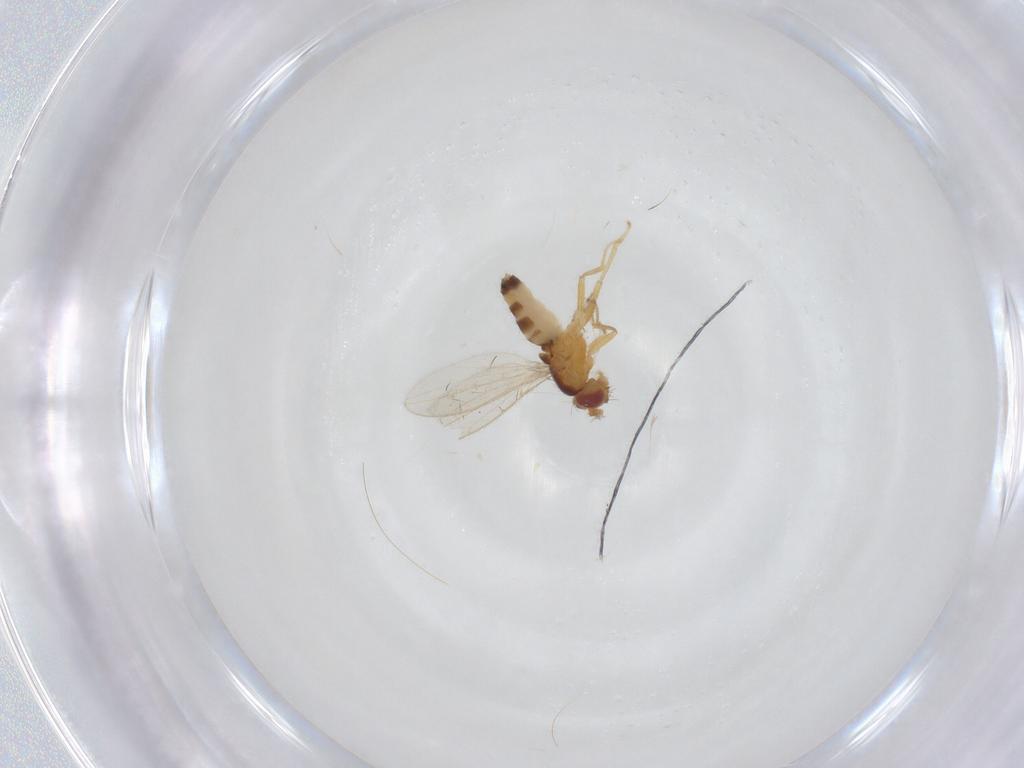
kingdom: Animalia
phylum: Arthropoda
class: Insecta
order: Diptera
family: Periscelididae
